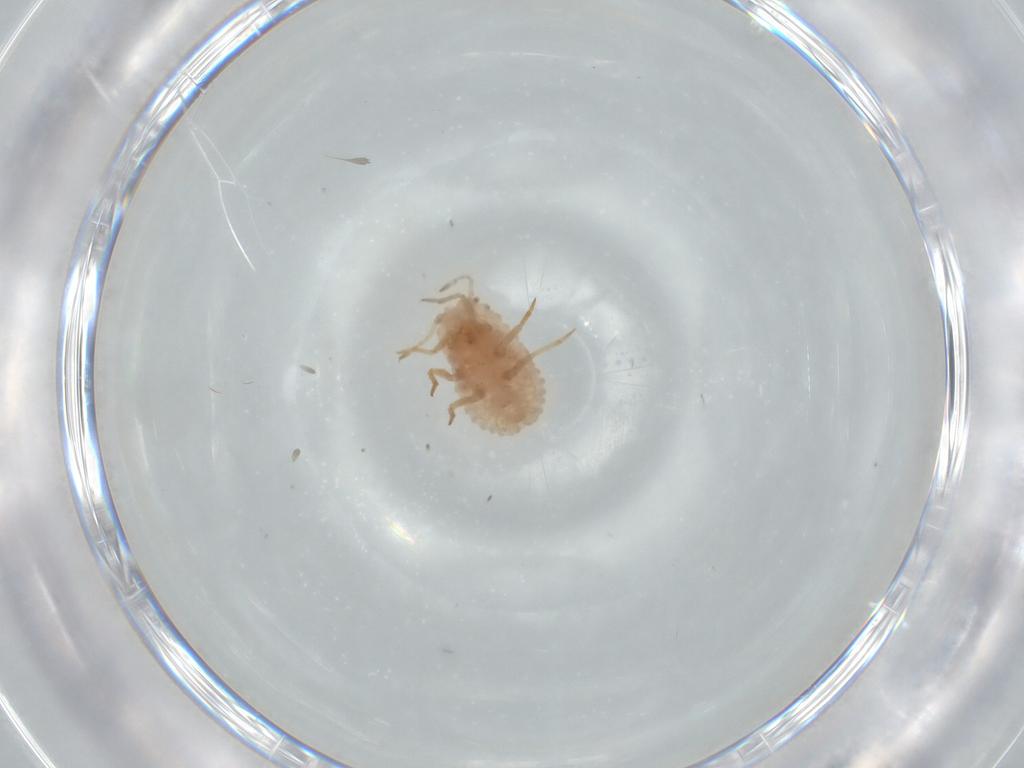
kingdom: Animalia
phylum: Arthropoda
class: Insecta
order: Hemiptera
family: Coccoidea_incertae_sedis
